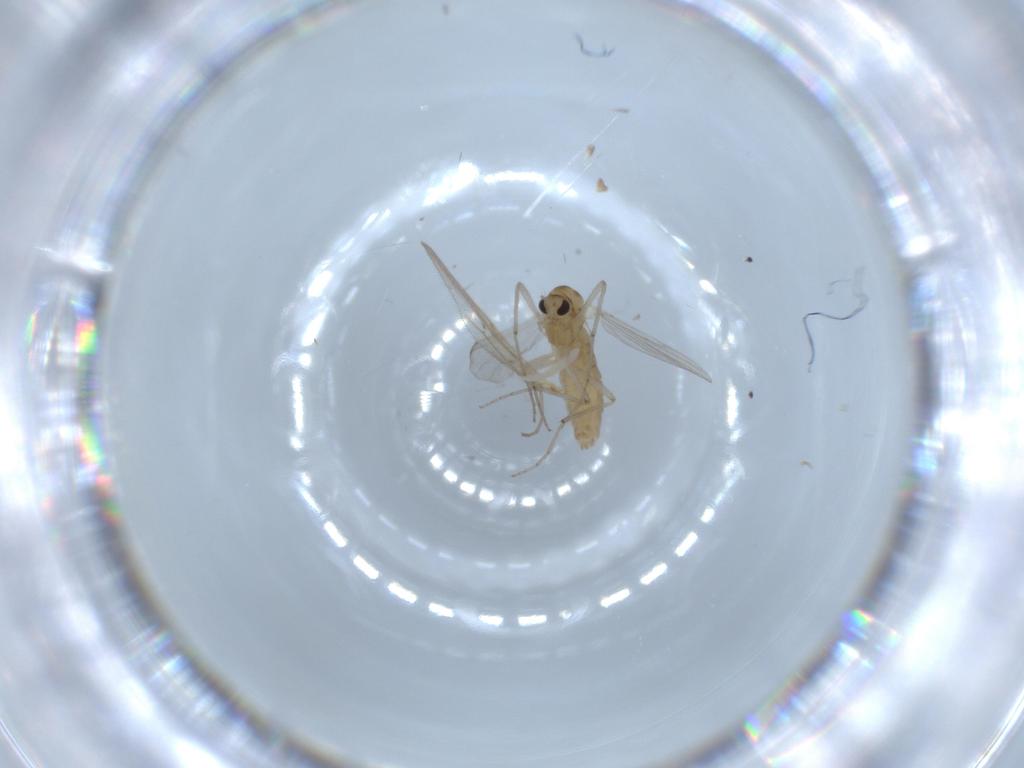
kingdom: Animalia
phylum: Arthropoda
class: Insecta
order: Diptera
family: Chironomidae
